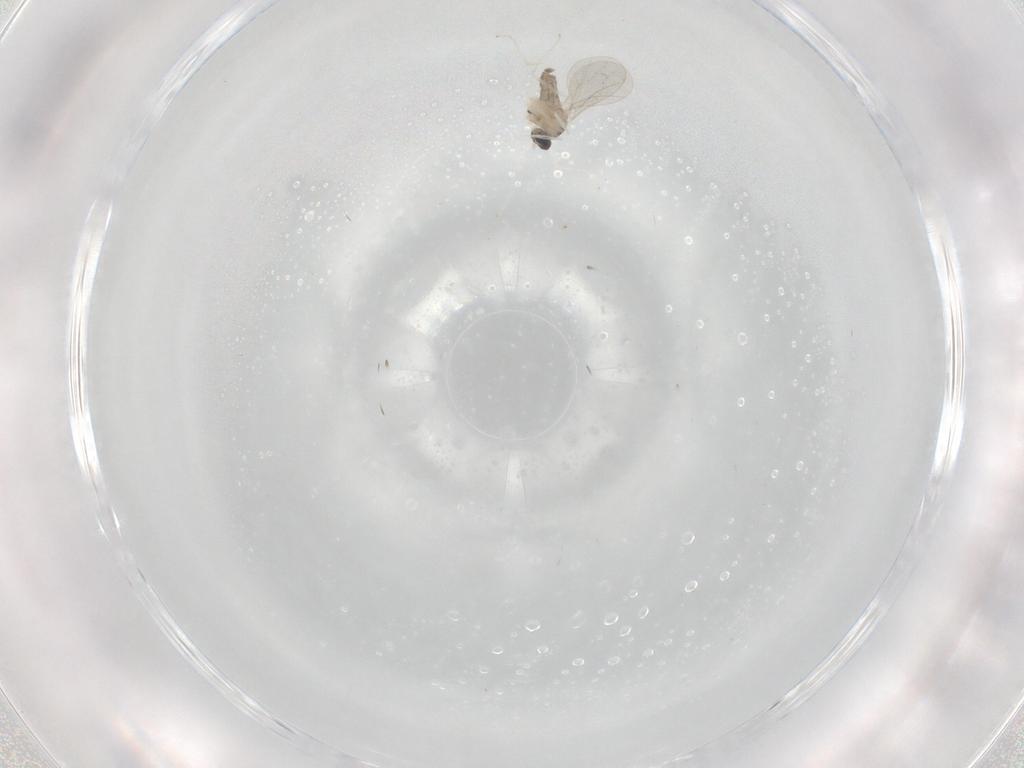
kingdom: Animalia
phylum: Arthropoda
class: Insecta
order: Diptera
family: Cecidomyiidae
